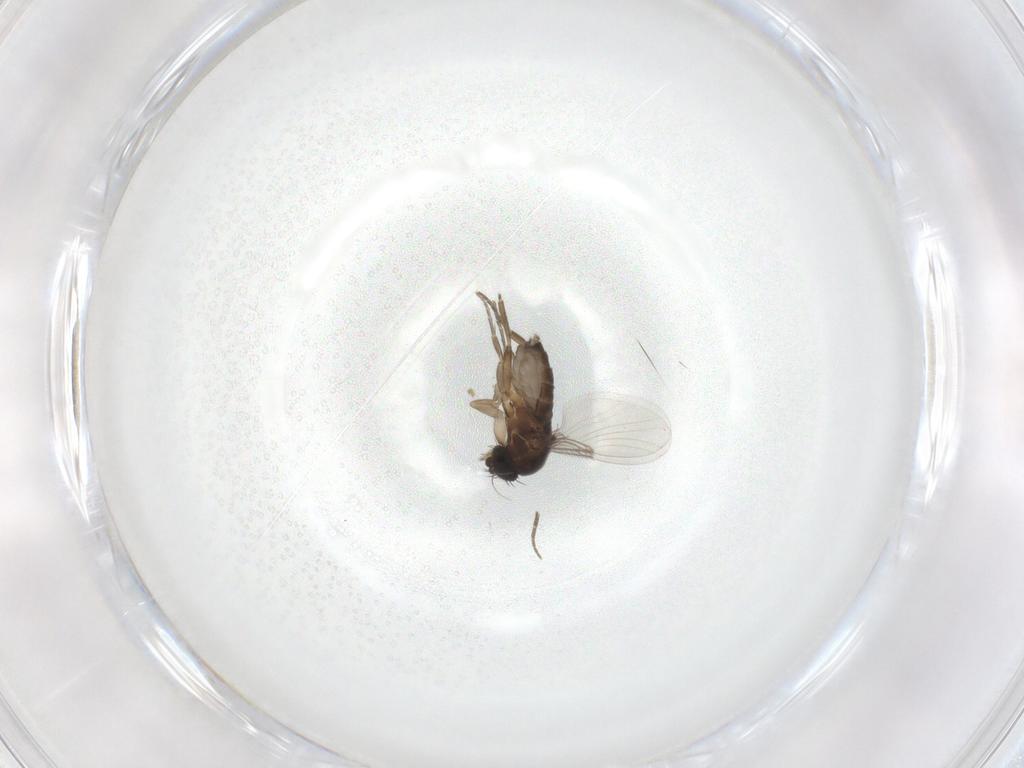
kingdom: Animalia
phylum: Arthropoda
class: Insecta
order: Diptera
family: Phoridae
